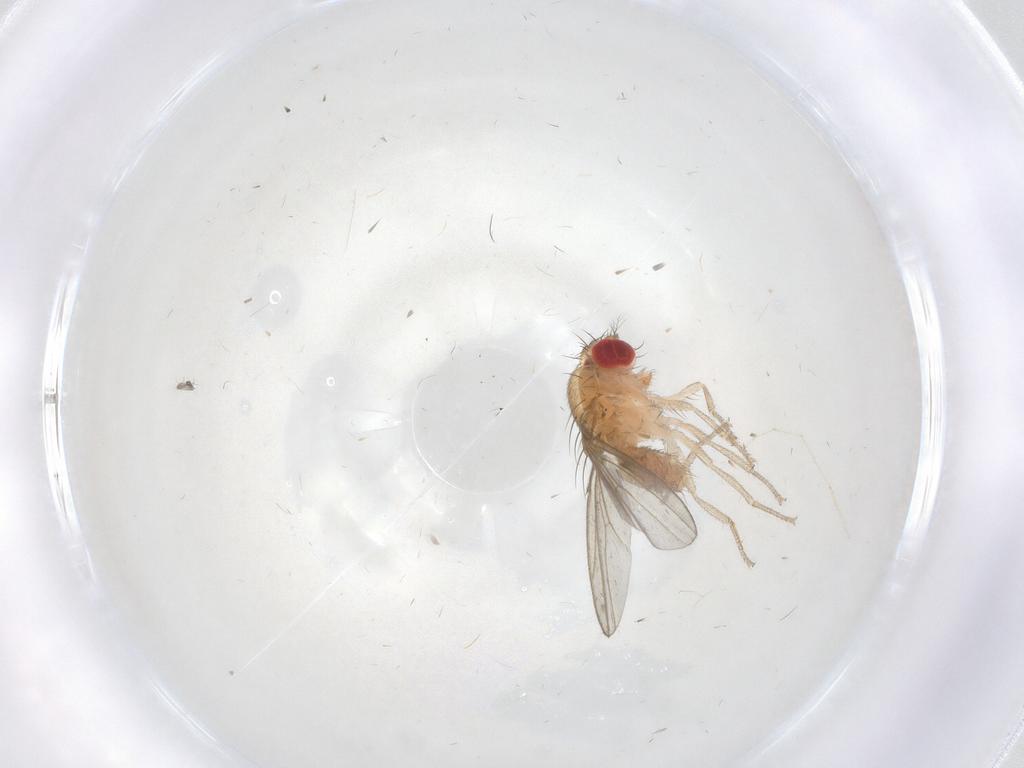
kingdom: Animalia
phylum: Arthropoda
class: Insecta
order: Diptera
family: Drosophilidae
